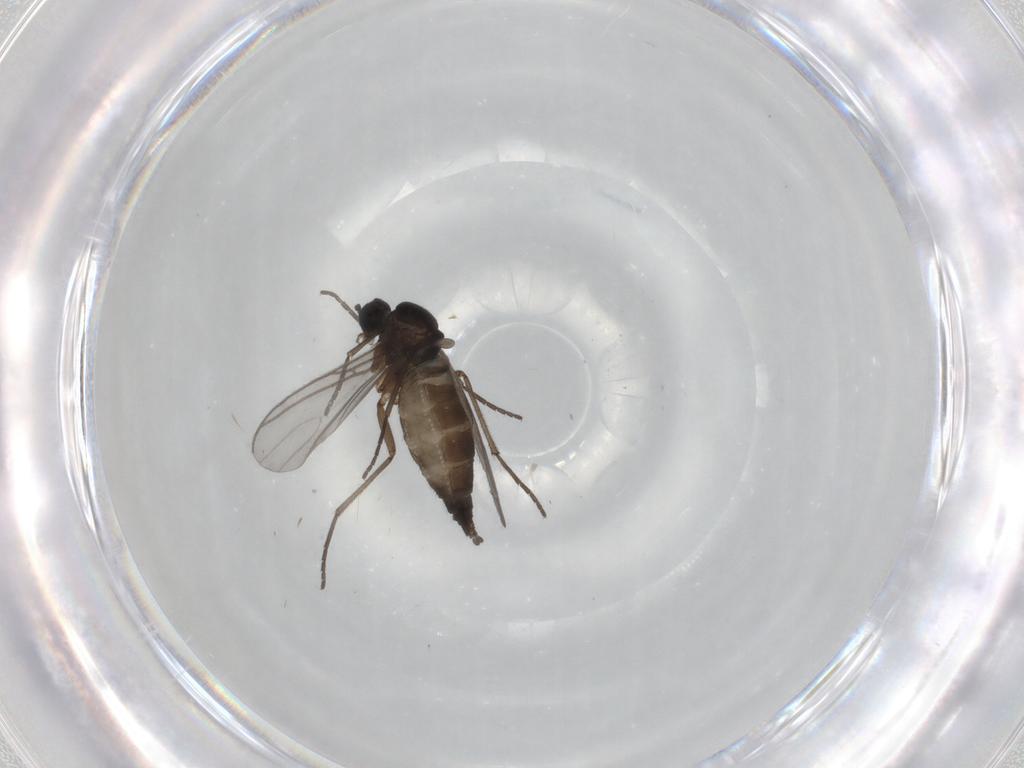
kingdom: Animalia
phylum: Arthropoda
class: Insecta
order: Diptera
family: Sciaridae
